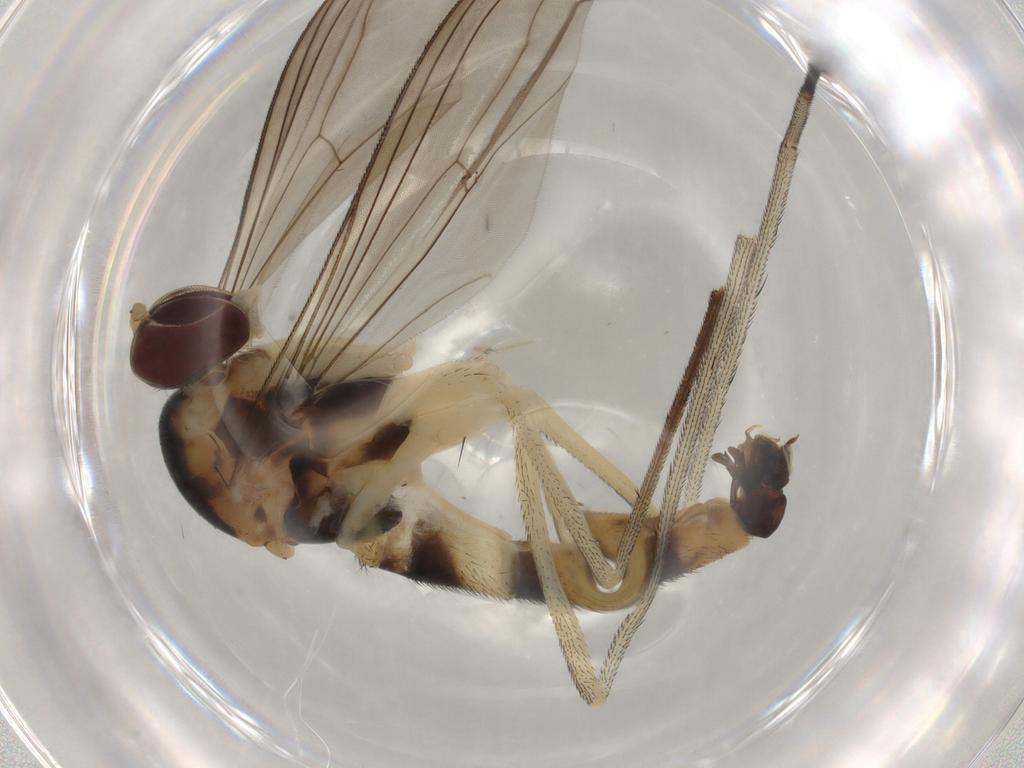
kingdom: Animalia
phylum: Arthropoda
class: Insecta
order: Diptera
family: Phoridae
